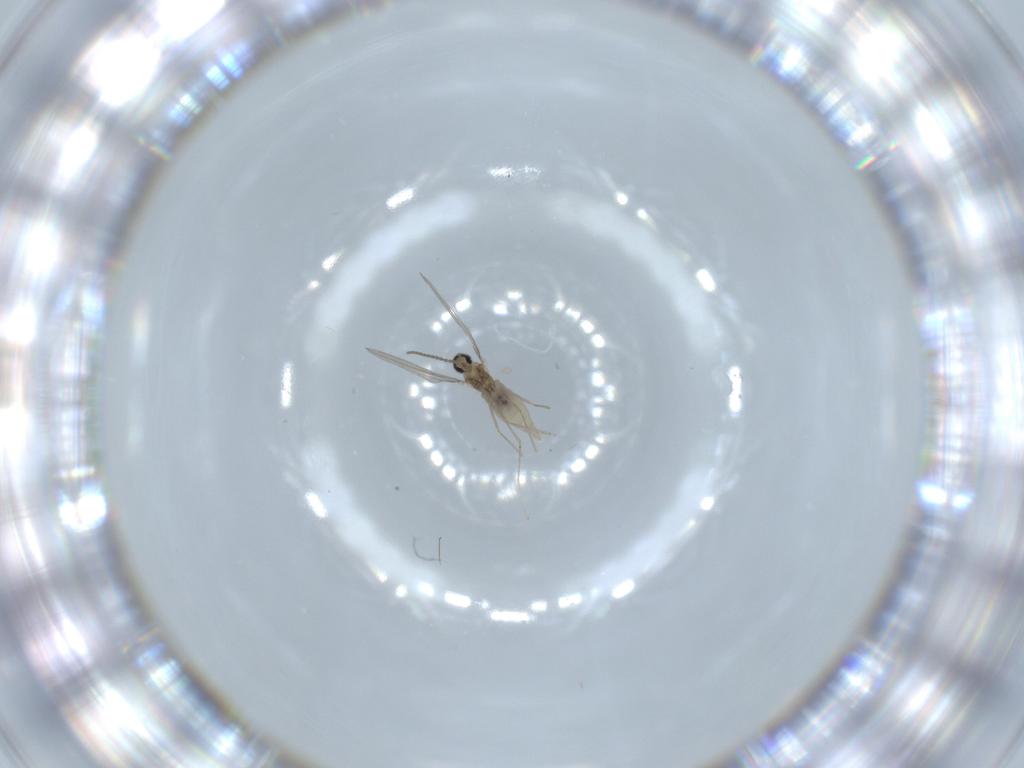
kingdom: Animalia
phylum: Arthropoda
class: Insecta
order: Diptera
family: Cecidomyiidae
